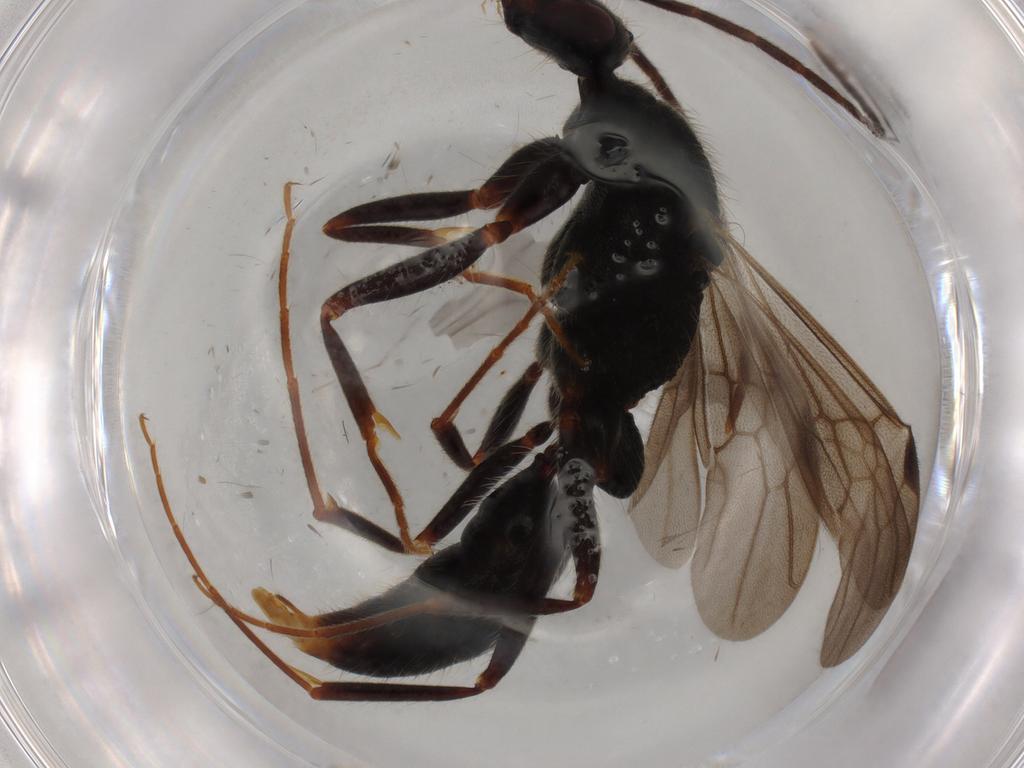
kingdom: Animalia
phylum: Arthropoda
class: Insecta
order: Hymenoptera
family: Formicidae
